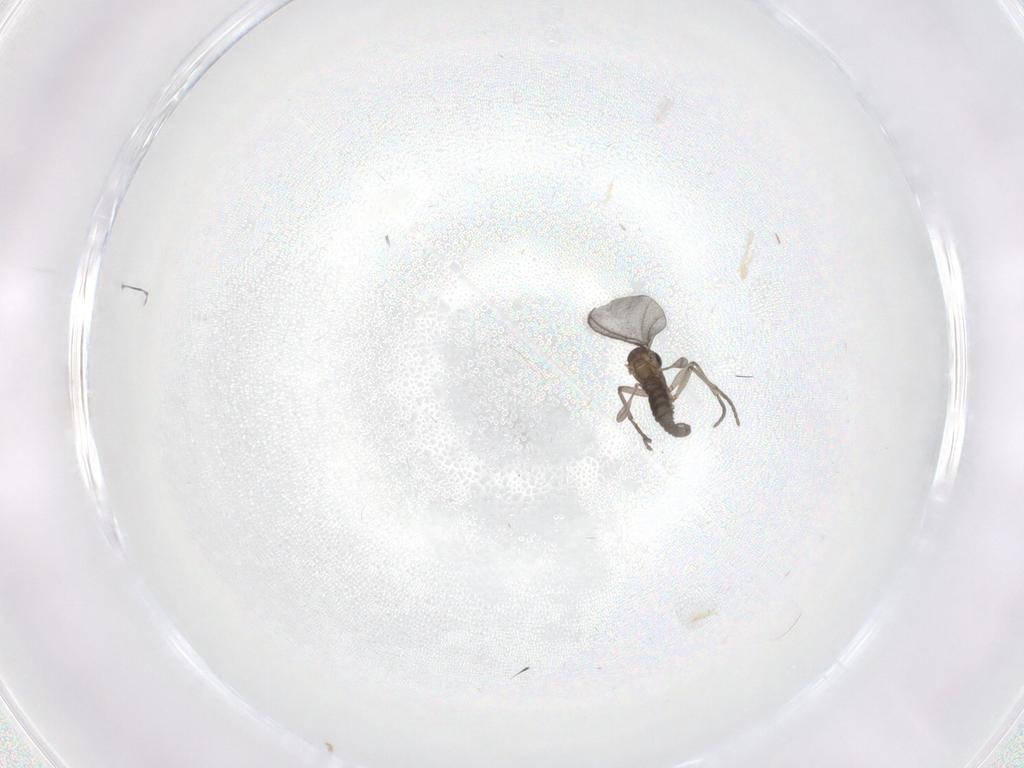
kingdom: Animalia
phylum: Arthropoda
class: Insecta
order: Diptera
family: Sciaridae
